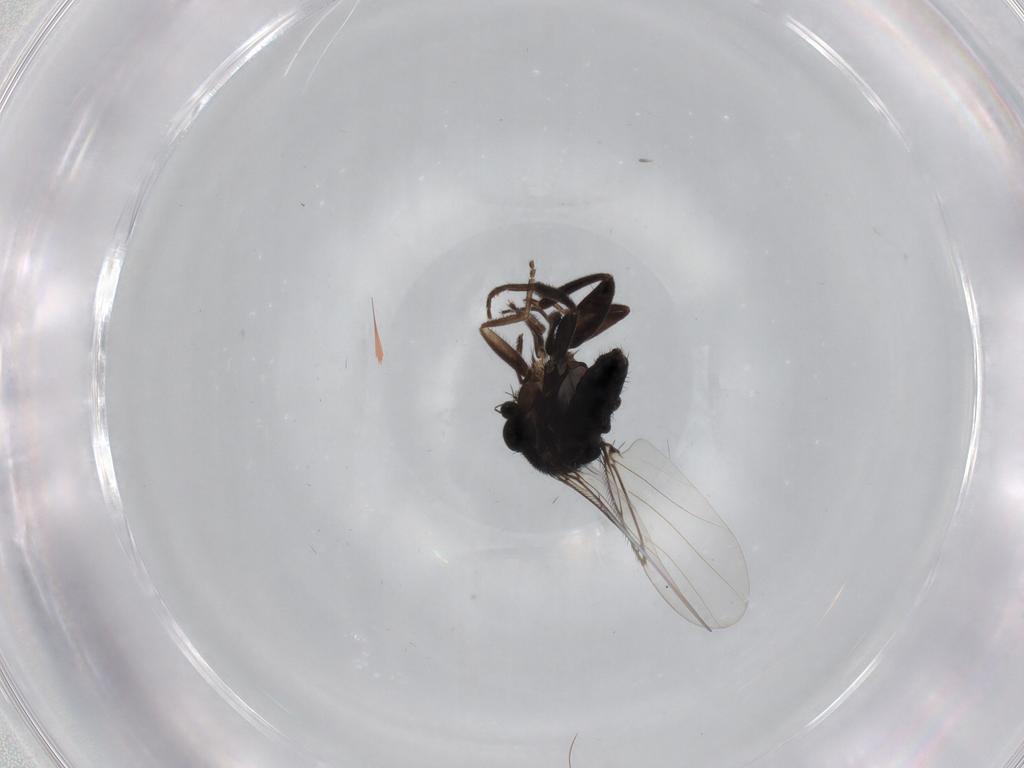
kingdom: Animalia
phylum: Arthropoda
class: Insecta
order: Diptera
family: Phoridae
